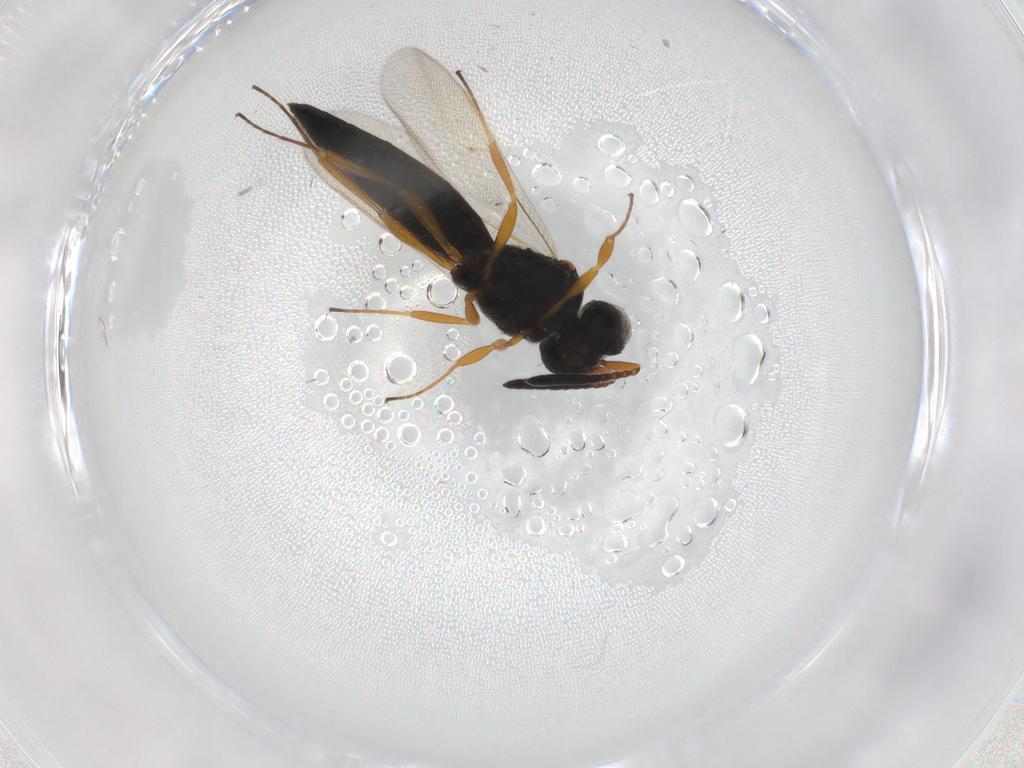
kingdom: Animalia
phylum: Arthropoda
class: Insecta
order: Hymenoptera
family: Scelionidae
